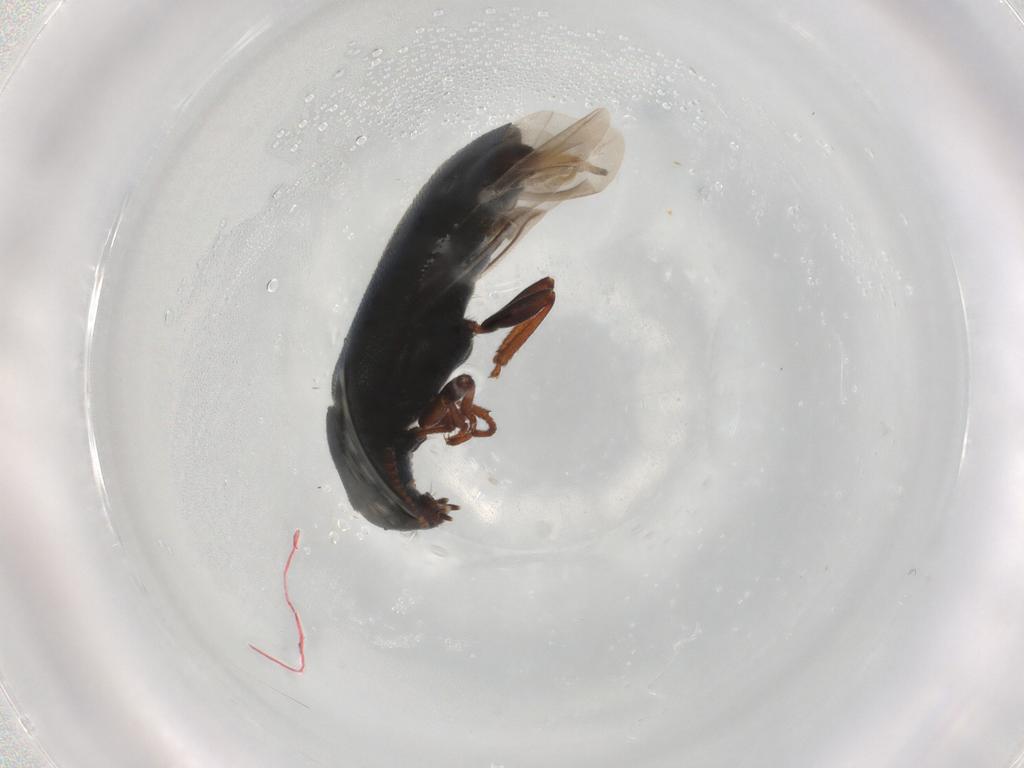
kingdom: Animalia
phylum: Arthropoda
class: Insecta
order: Coleoptera
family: Melyridae
